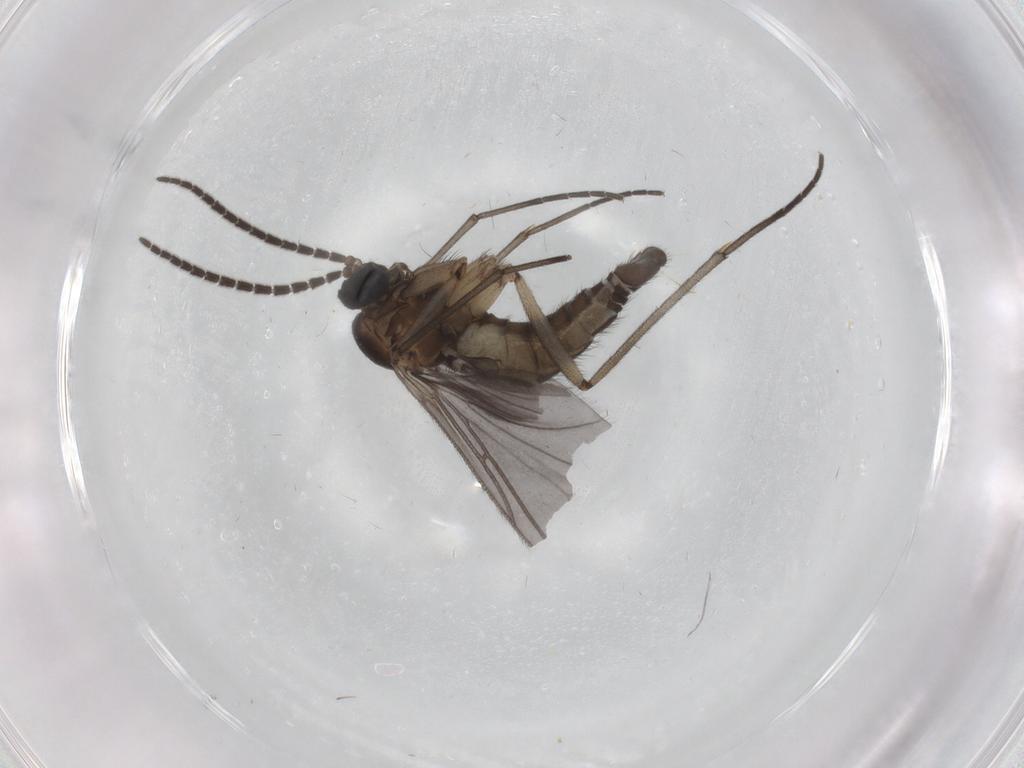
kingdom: Animalia
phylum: Arthropoda
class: Insecta
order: Diptera
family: Sciaridae
